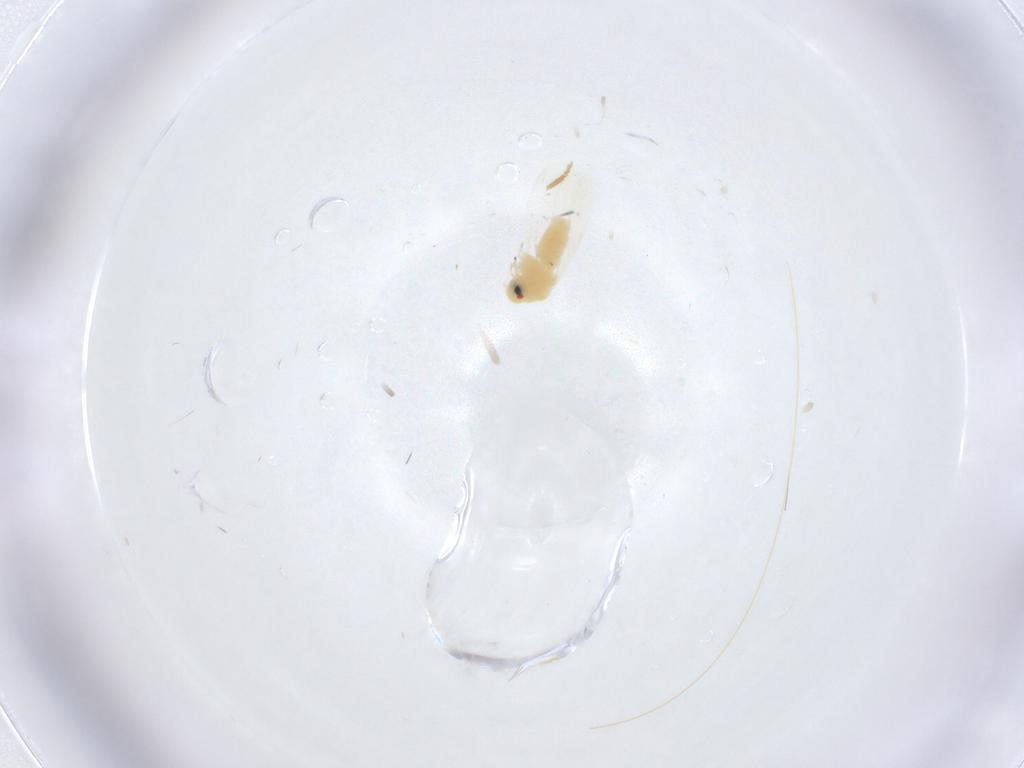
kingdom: Animalia
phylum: Arthropoda
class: Insecta
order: Hemiptera
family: Aleyrodidae
